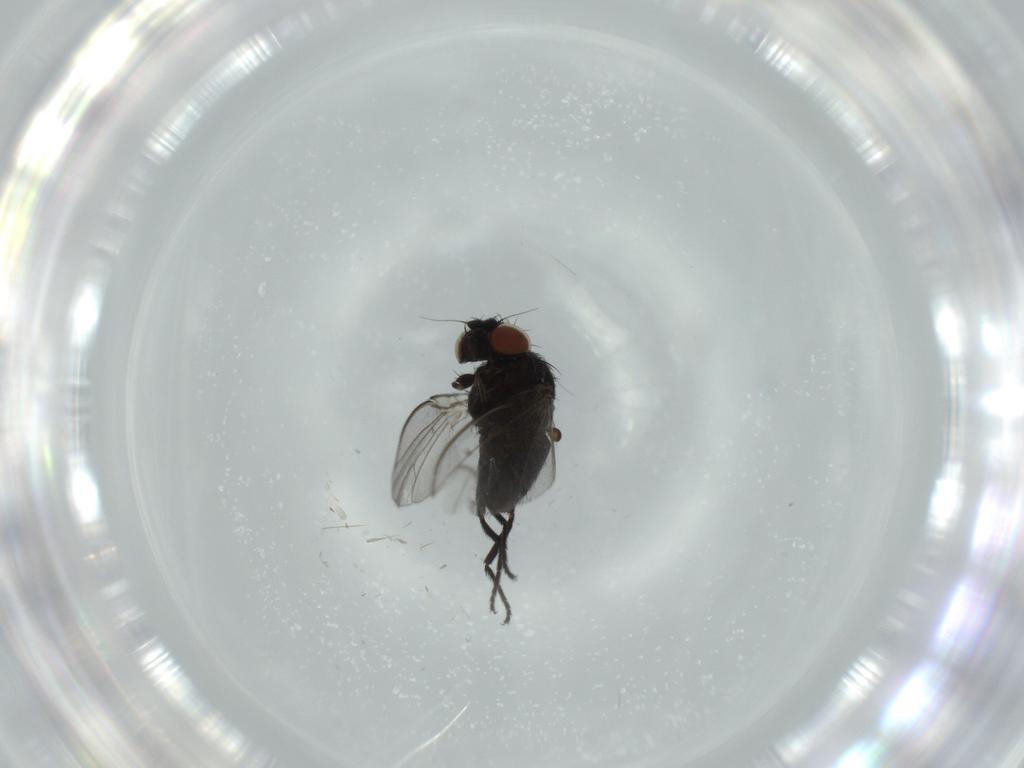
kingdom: Animalia
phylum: Arthropoda
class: Insecta
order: Diptera
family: Milichiidae
